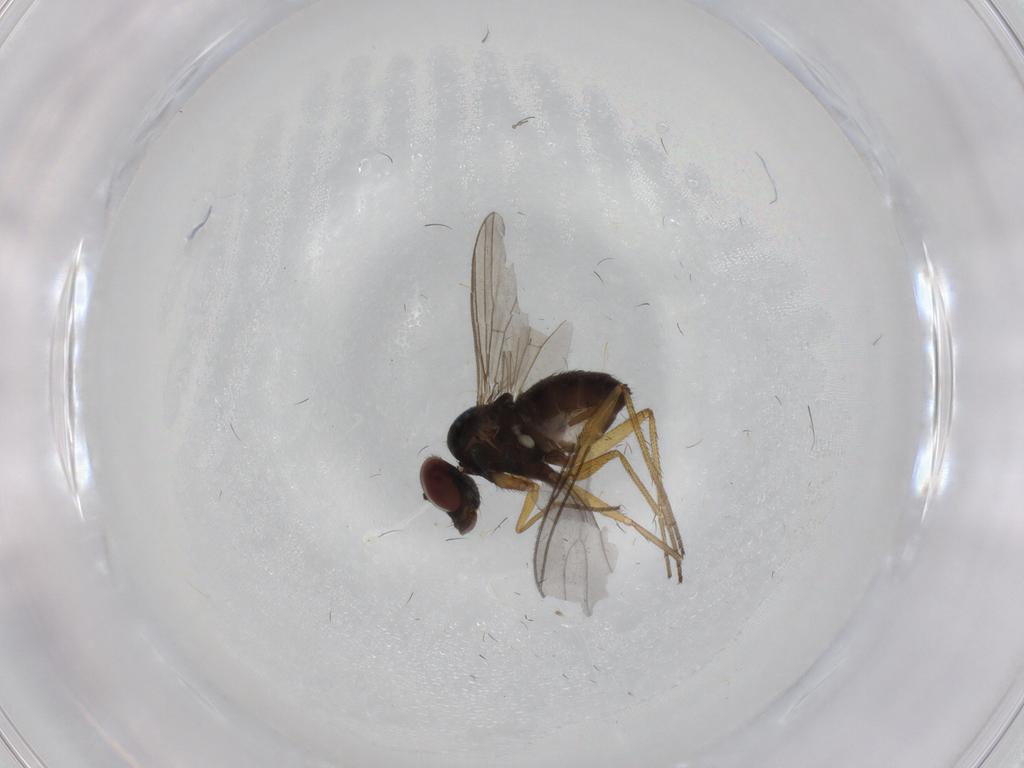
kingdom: Animalia
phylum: Arthropoda
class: Insecta
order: Diptera
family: Dolichopodidae
